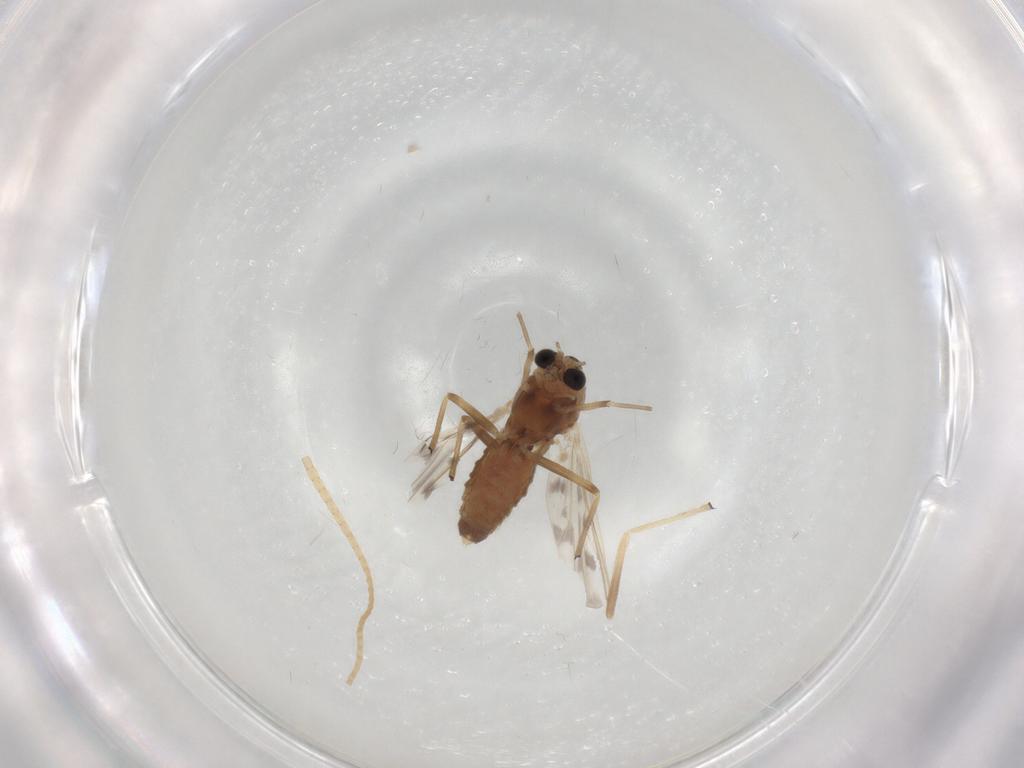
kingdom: Animalia
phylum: Arthropoda
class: Insecta
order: Diptera
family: Chironomidae
